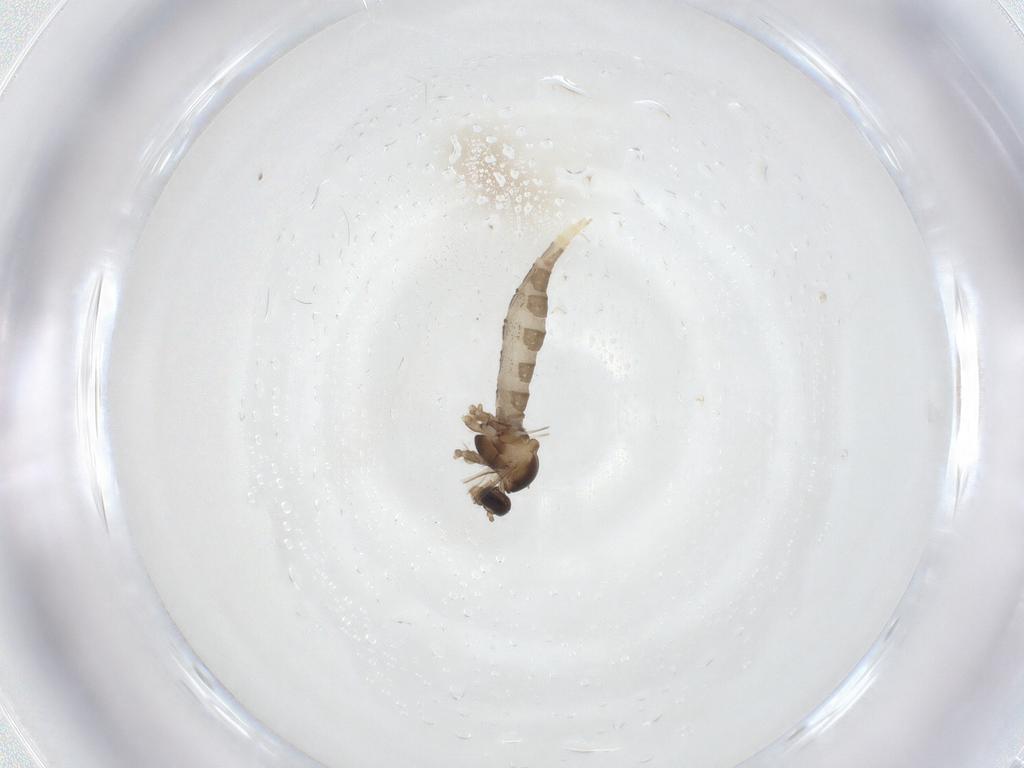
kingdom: Animalia
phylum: Arthropoda
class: Insecta
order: Diptera
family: Cecidomyiidae
